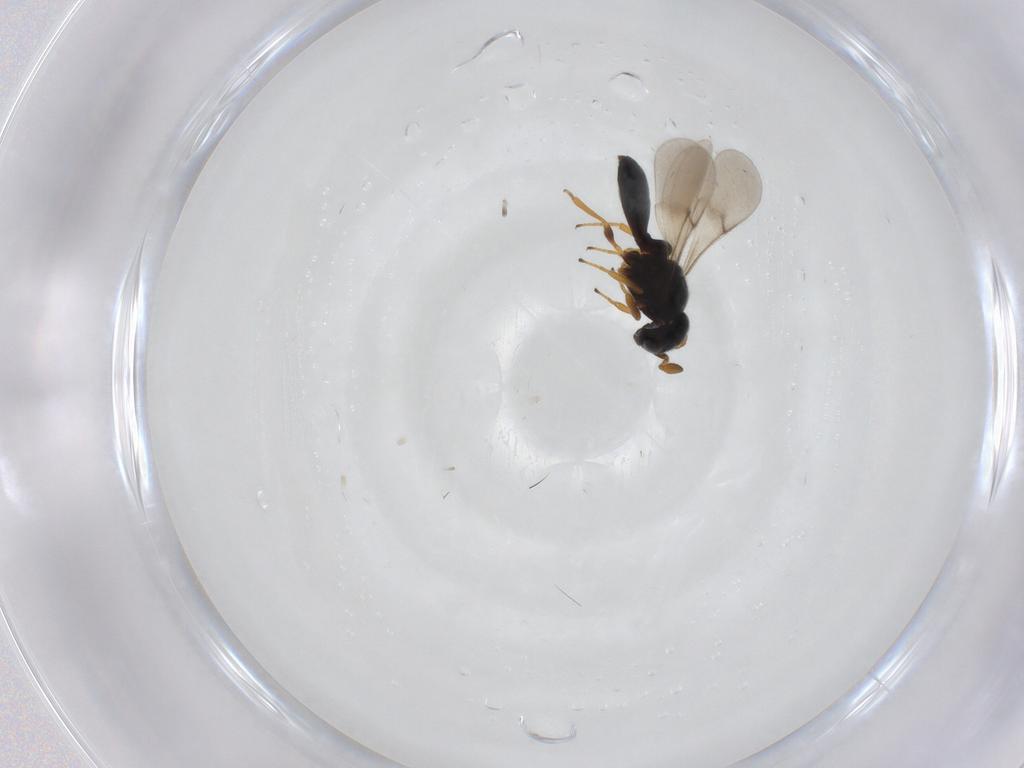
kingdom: Animalia
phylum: Arthropoda
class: Insecta
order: Hymenoptera
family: Scelionidae
